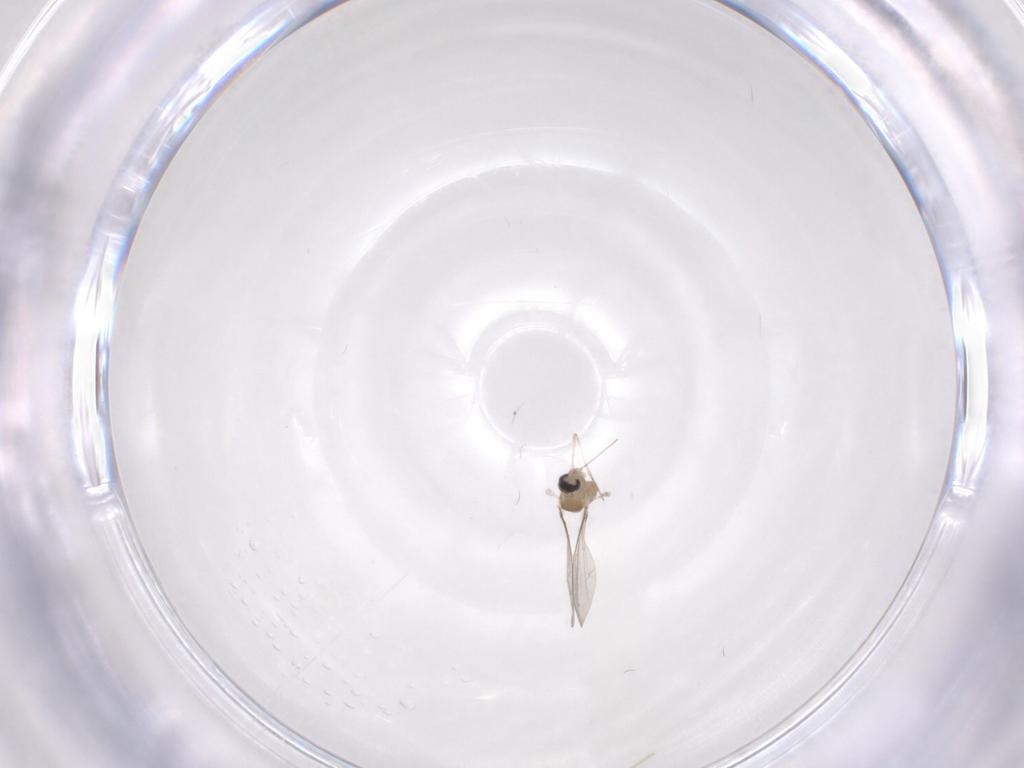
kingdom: Animalia
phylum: Arthropoda
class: Insecta
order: Diptera
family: Cecidomyiidae
